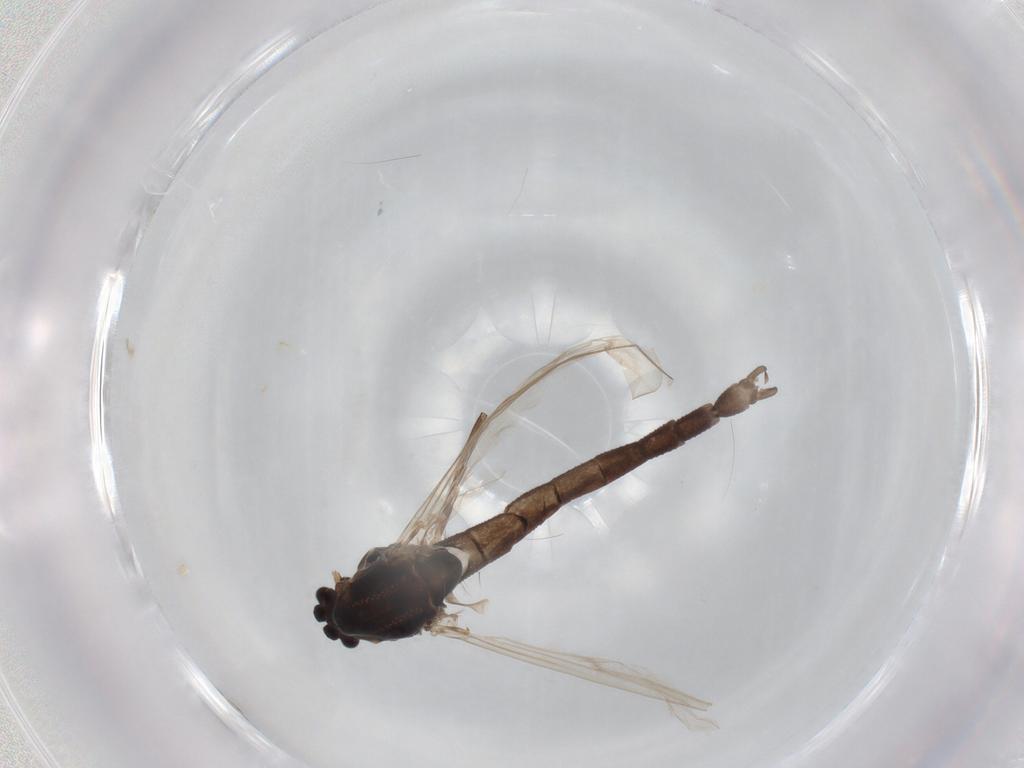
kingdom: Animalia
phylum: Arthropoda
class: Insecta
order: Diptera
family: Chironomidae
